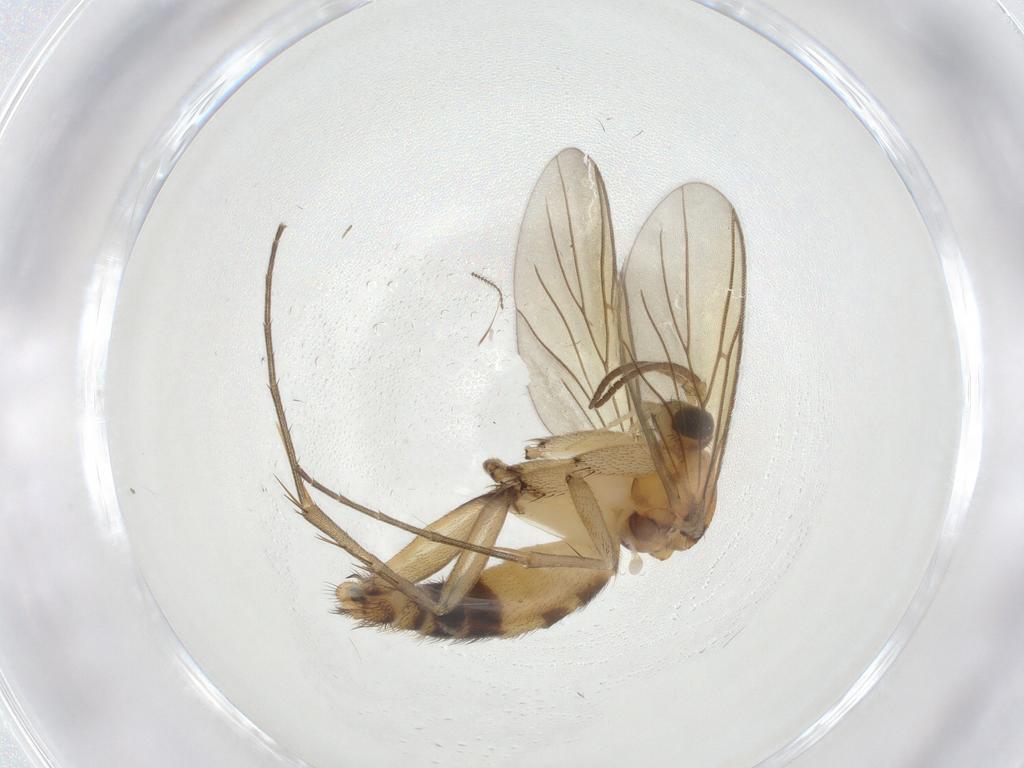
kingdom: Animalia
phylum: Arthropoda
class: Insecta
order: Diptera
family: Mycetophilidae
